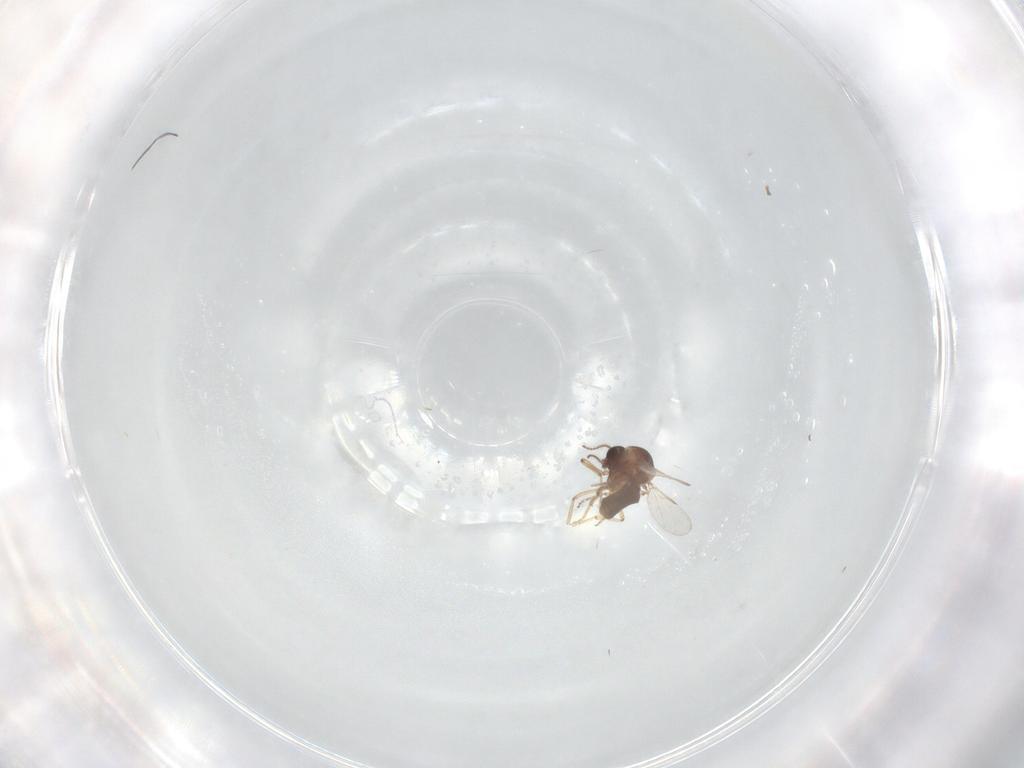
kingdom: Animalia
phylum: Arthropoda
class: Insecta
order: Diptera
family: Ceratopogonidae
